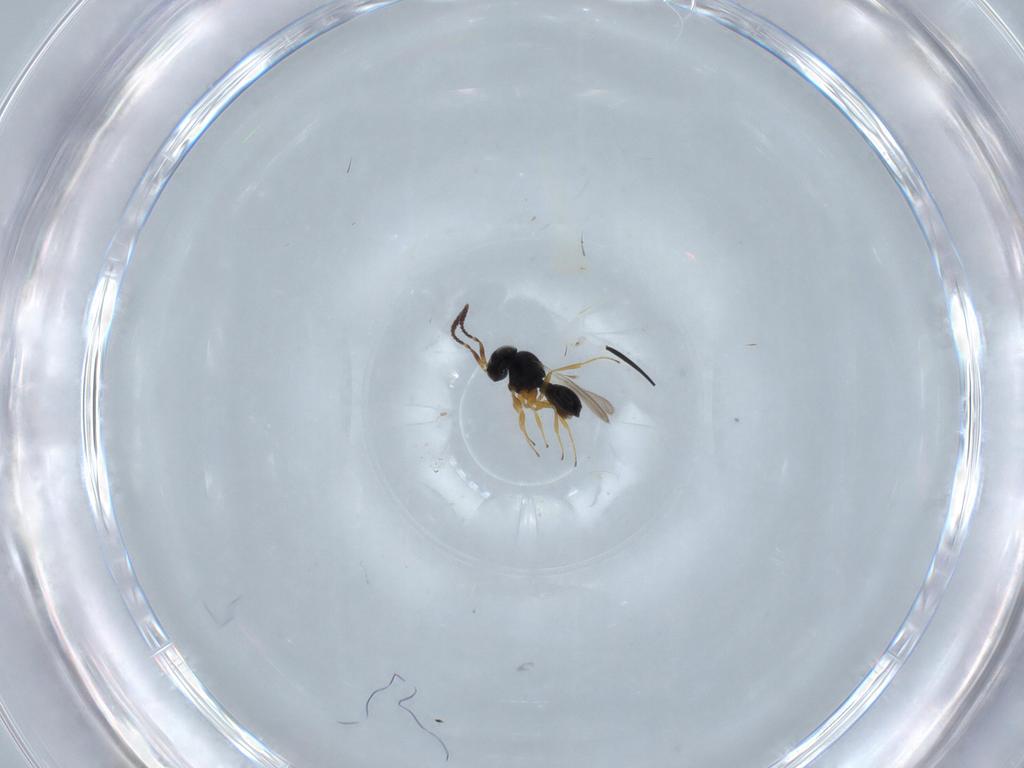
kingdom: Animalia
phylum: Arthropoda
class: Insecta
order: Hymenoptera
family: Scelionidae
